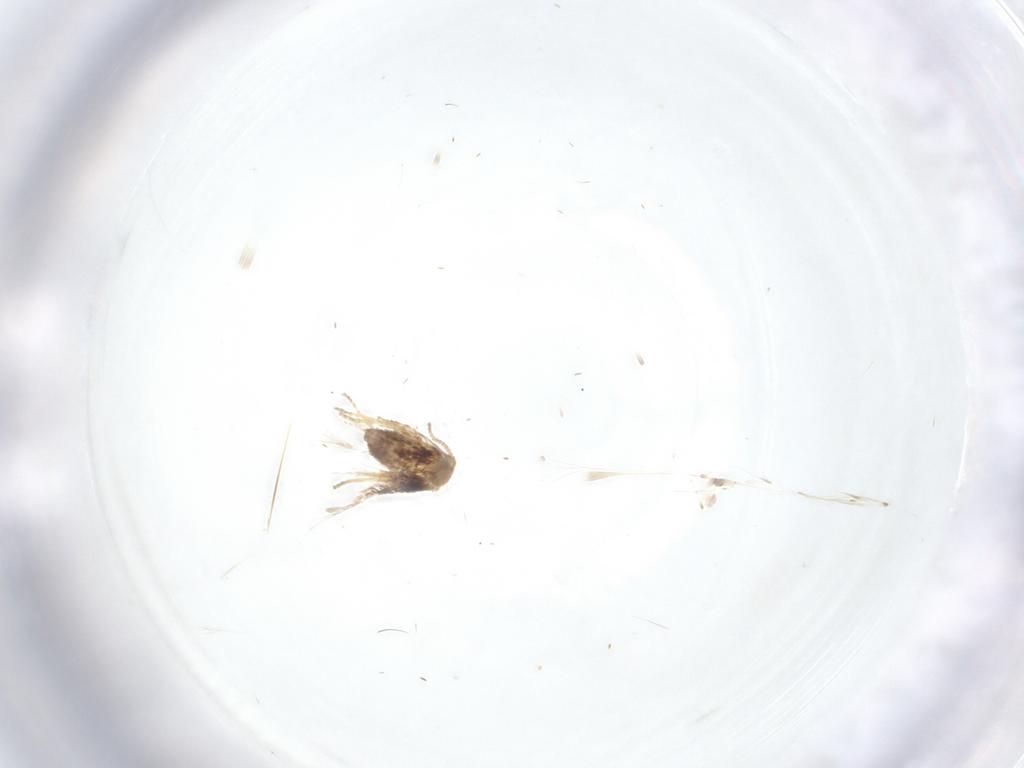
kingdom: Animalia
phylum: Arthropoda
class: Insecta
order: Lepidoptera
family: Nepticulidae
